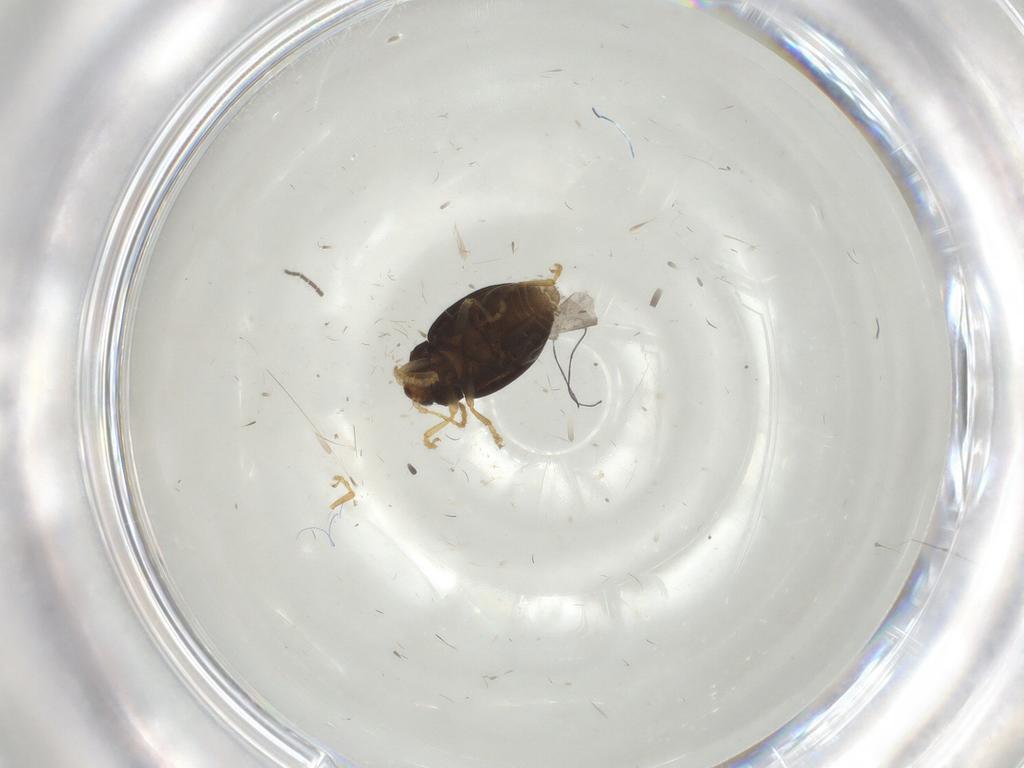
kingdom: Animalia
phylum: Arthropoda
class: Insecta
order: Coleoptera
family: Chrysomelidae
